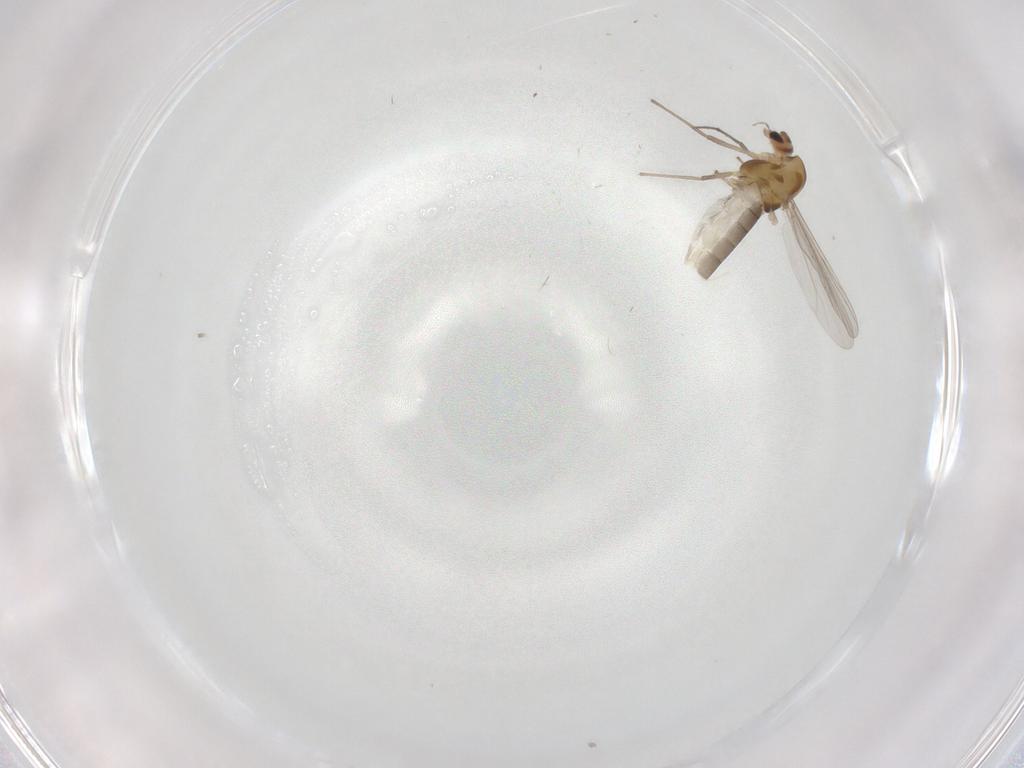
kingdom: Animalia
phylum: Arthropoda
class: Insecta
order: Diptera
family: Chironomidae
